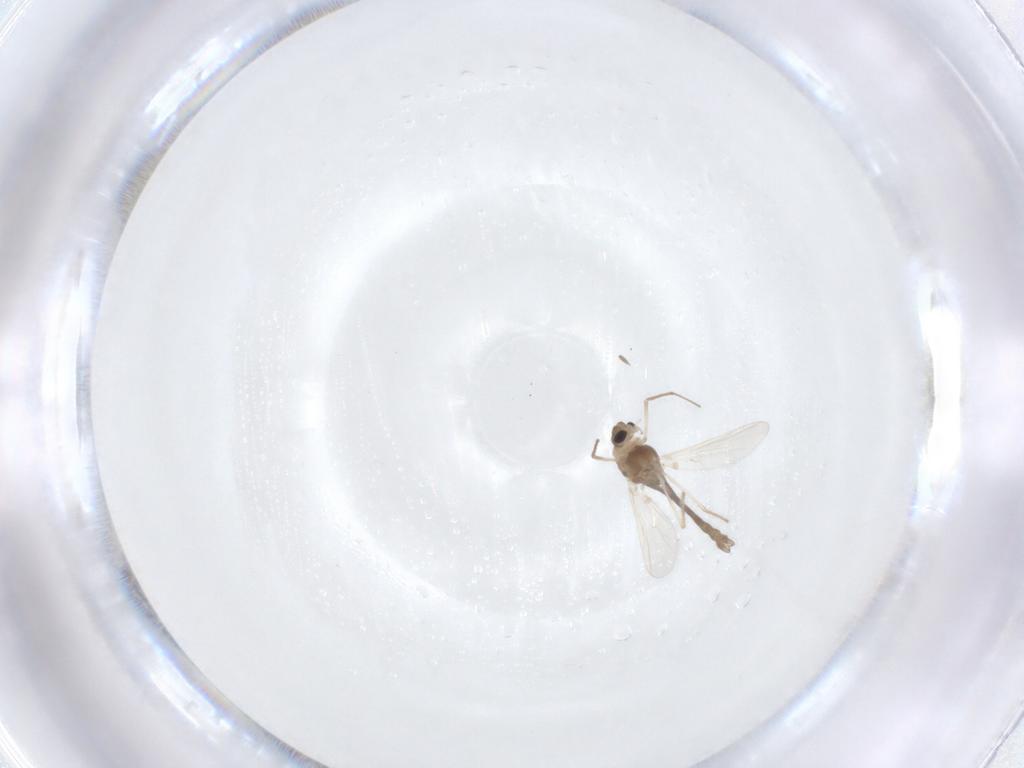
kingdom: Animalia
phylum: Arthropoda
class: Insecta
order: Diptera
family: Chironomidae
